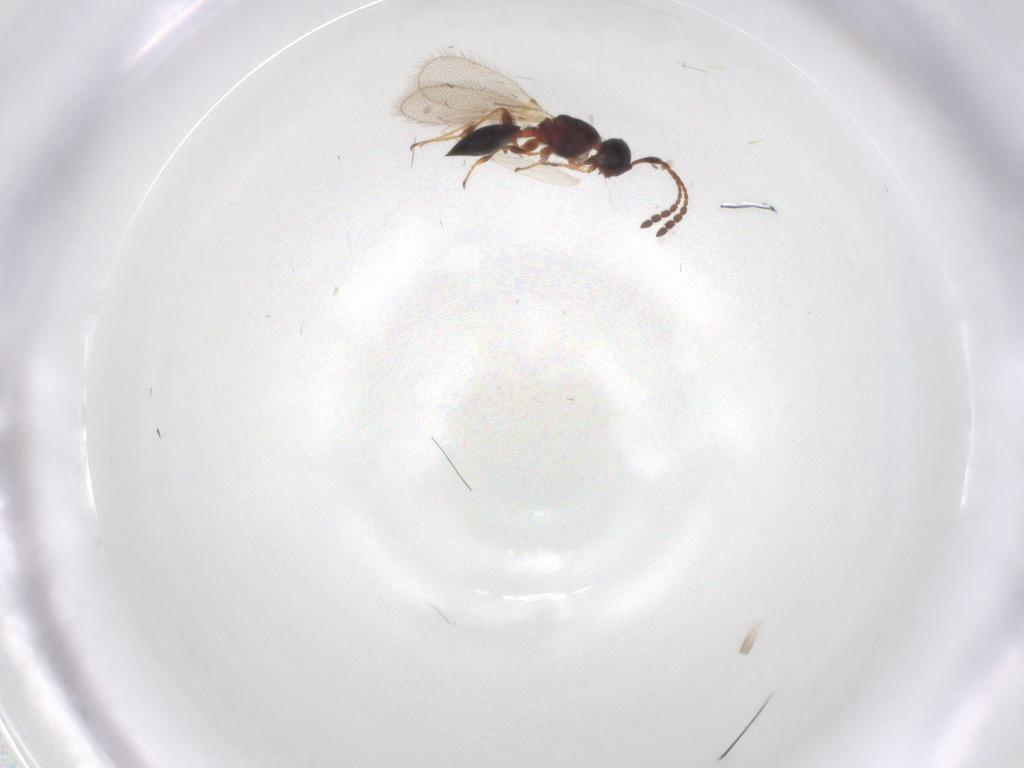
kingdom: Animalia
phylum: Arthropoda
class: Insecta
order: Hymenoptera
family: Diapriidae
